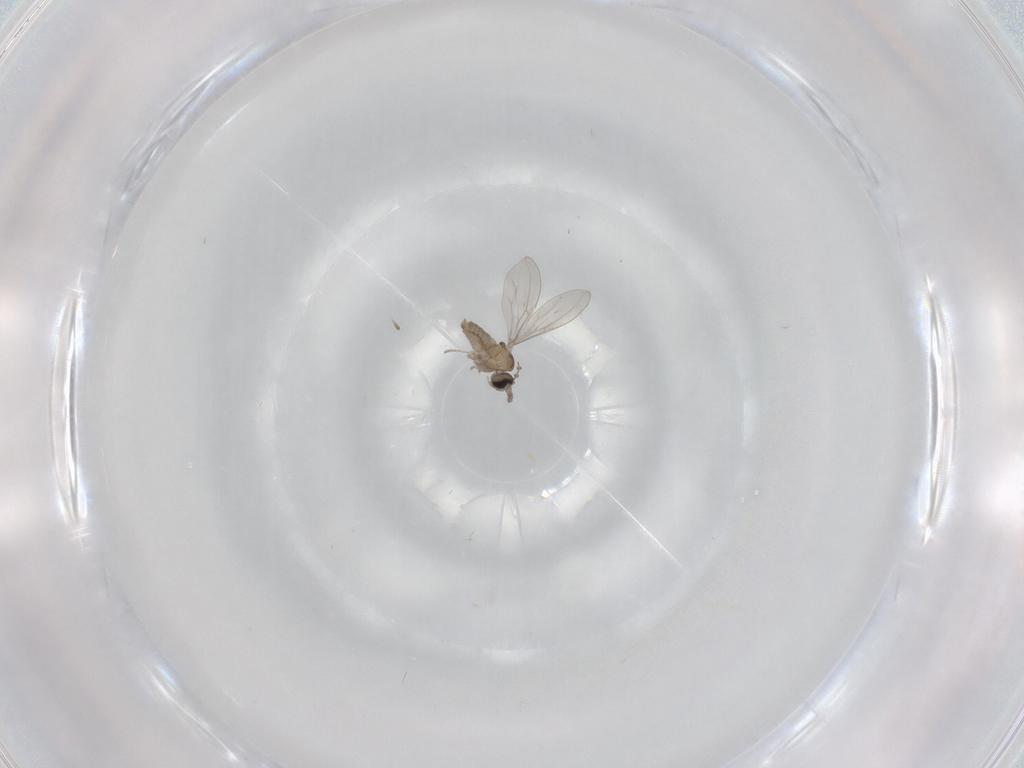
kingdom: Animalia
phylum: Arthropoda
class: Insecta
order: Diptera
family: Cecidomyiidae
